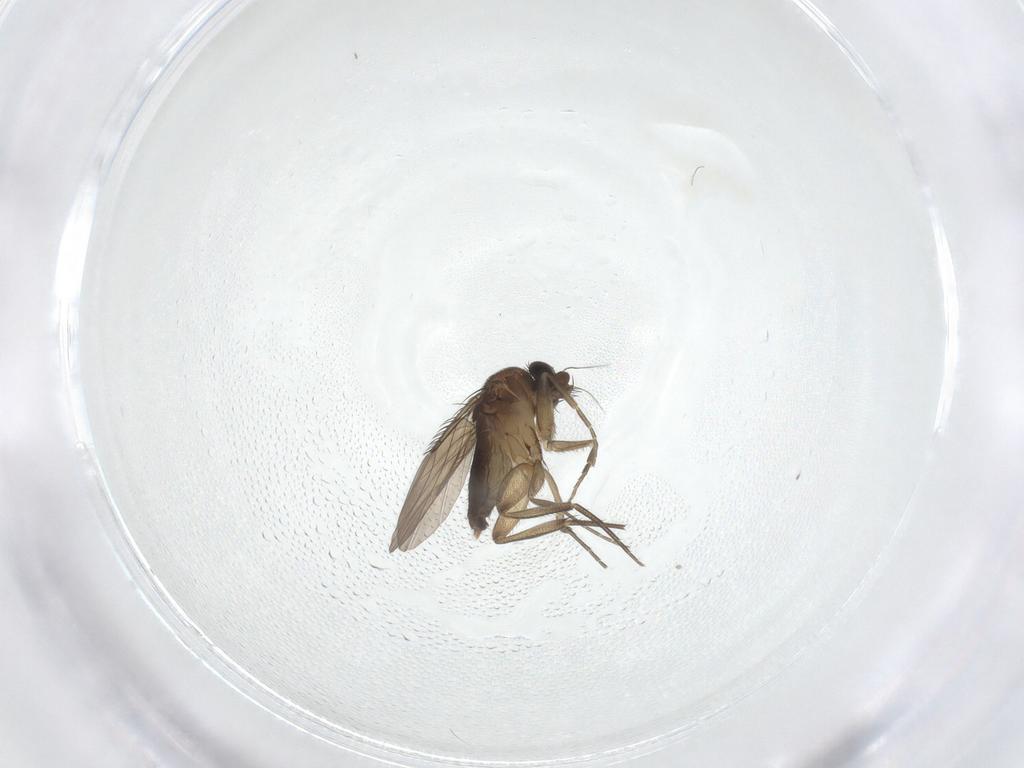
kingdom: Animalia
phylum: Arthropoda
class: Insecta
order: Diptera
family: Phoridae
